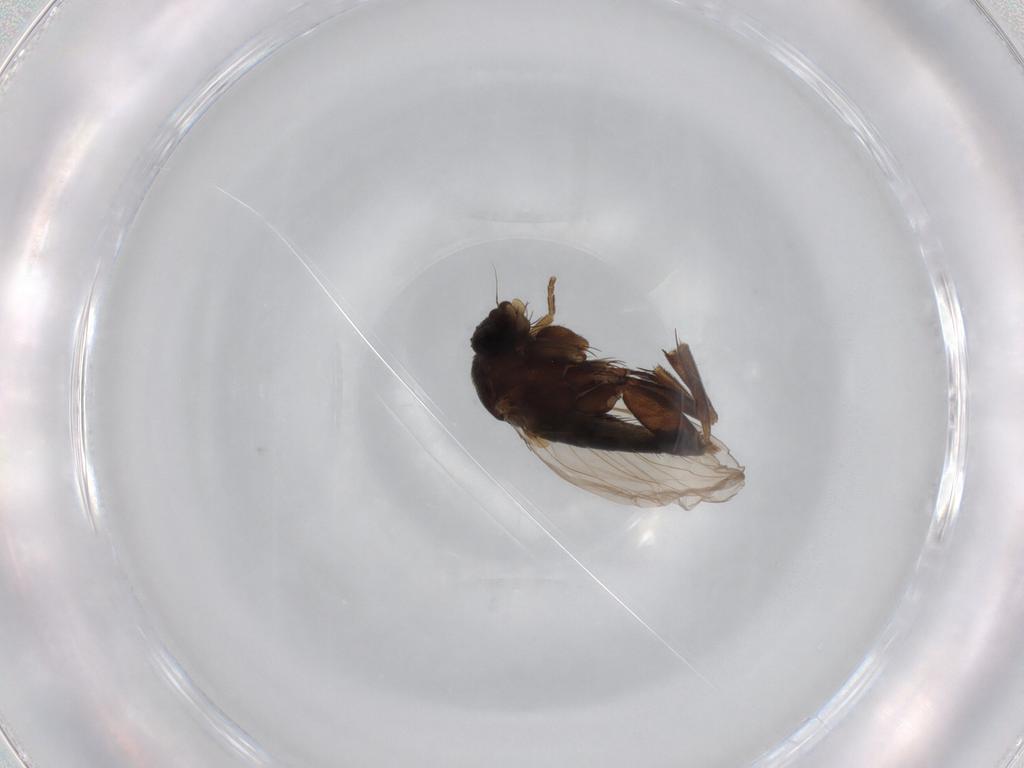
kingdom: Animalia
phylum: Arthropoda
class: Insecta
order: Diptera
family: Phoridae
